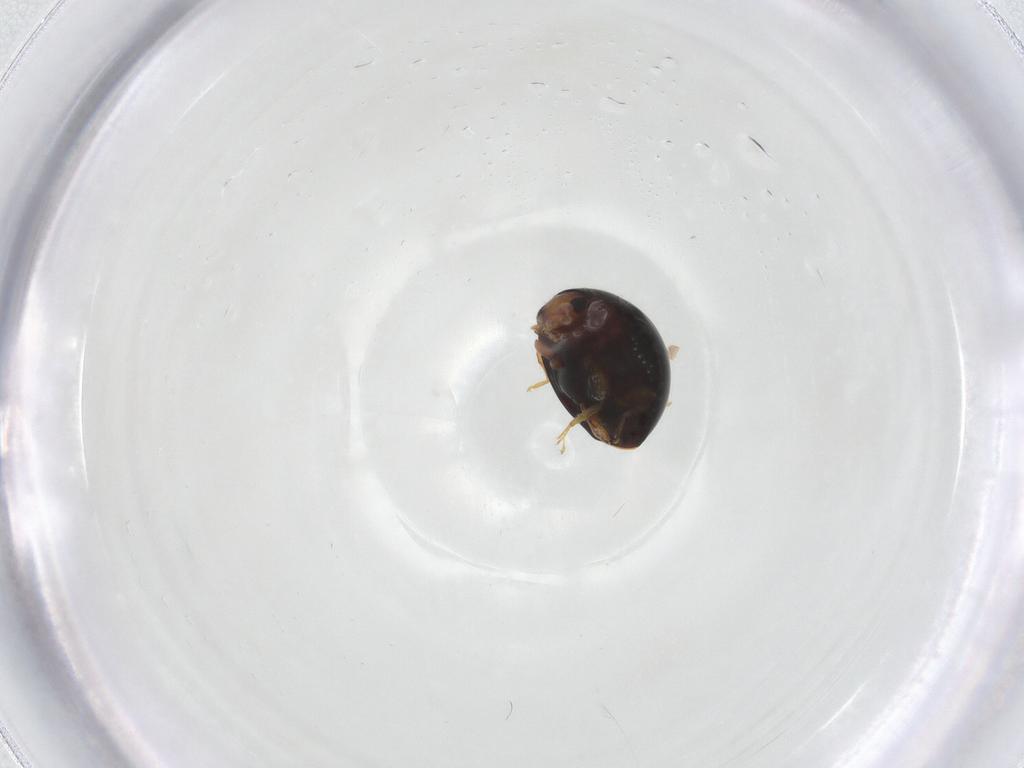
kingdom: Animalia
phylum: Arthropoda
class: Insecta
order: Coleoptera
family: Coccinellidae
